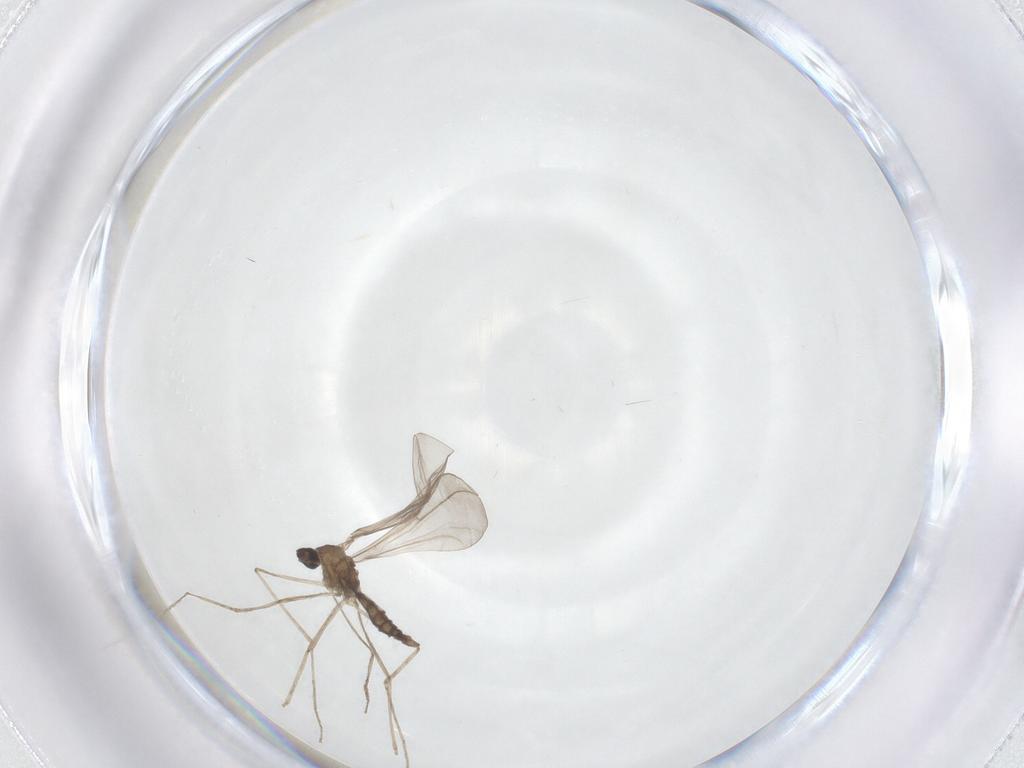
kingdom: Animalia
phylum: Arthropoda
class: Insecta
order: Diptera
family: Cecidomyiidae
